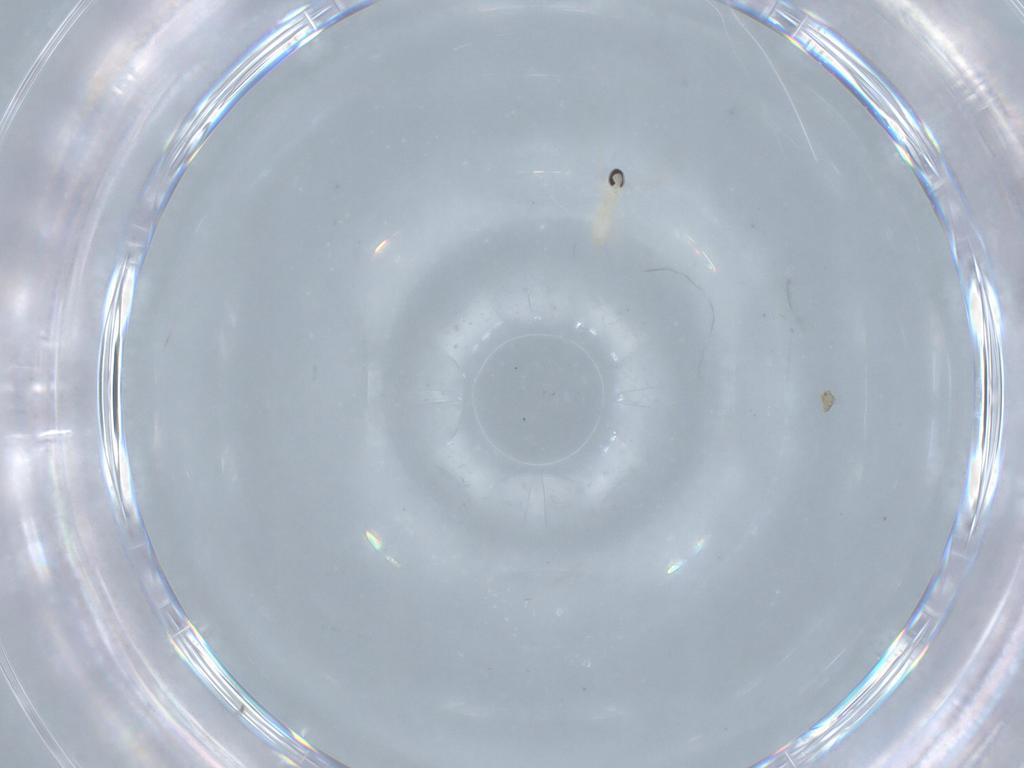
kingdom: Animalia
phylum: Arthropoda
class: Insecta
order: Diptera
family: Cecidomyiidae
